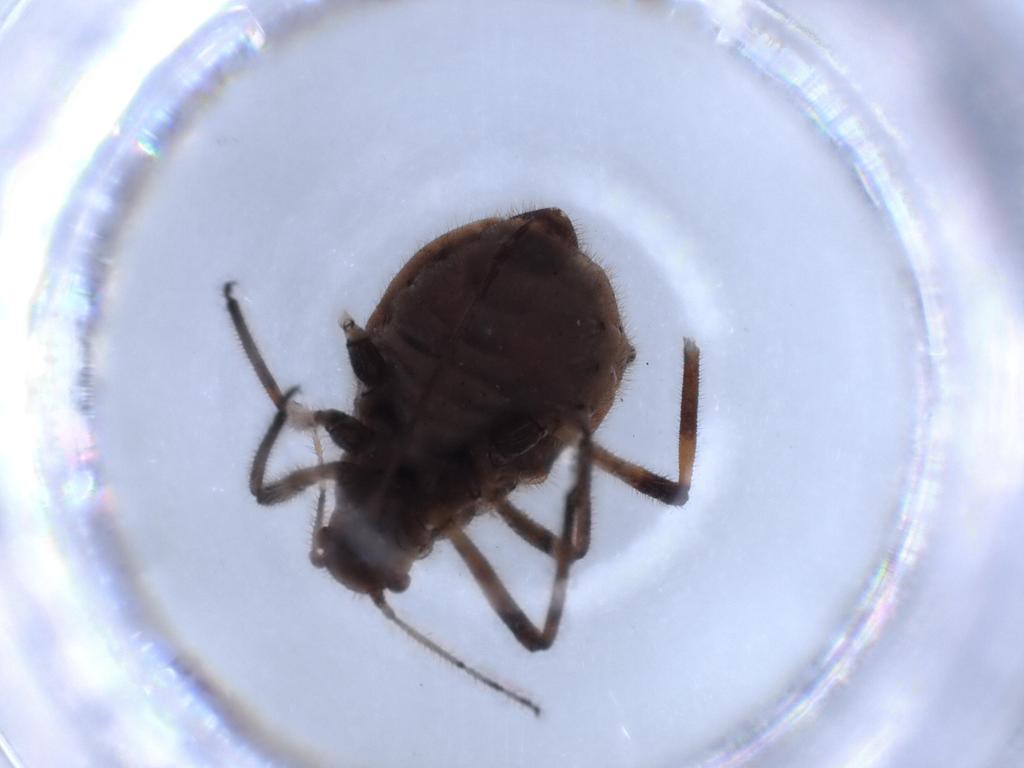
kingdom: Animalia
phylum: Arthropoda
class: Insecta
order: Hemiptera
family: Aphididae
